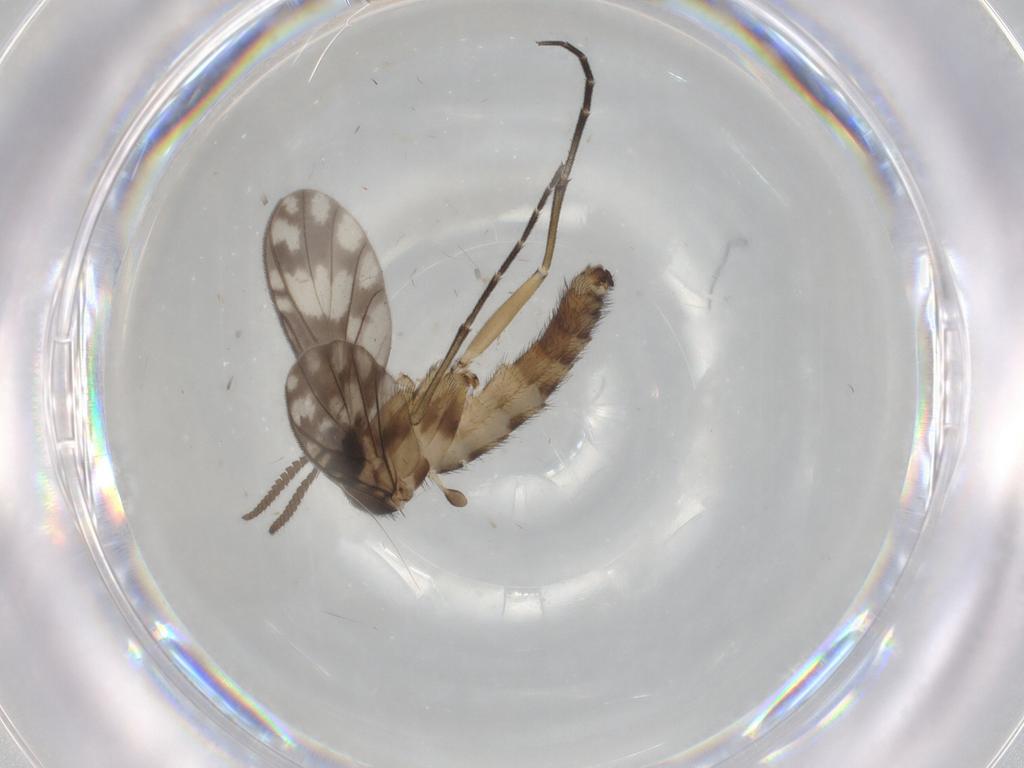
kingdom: Animalia
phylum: Arthropoda
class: Insecta
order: Diptera
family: Keroplatidae
